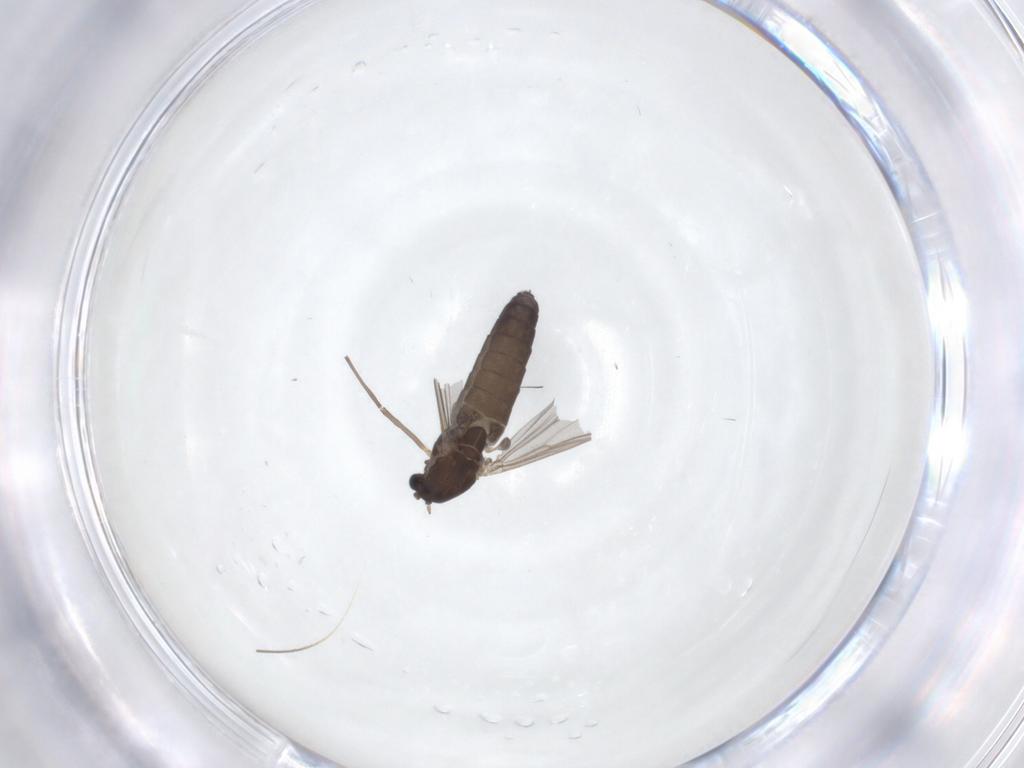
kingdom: Animalia
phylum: Arthropoda
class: Insecta
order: Diptera
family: Chironomidae
